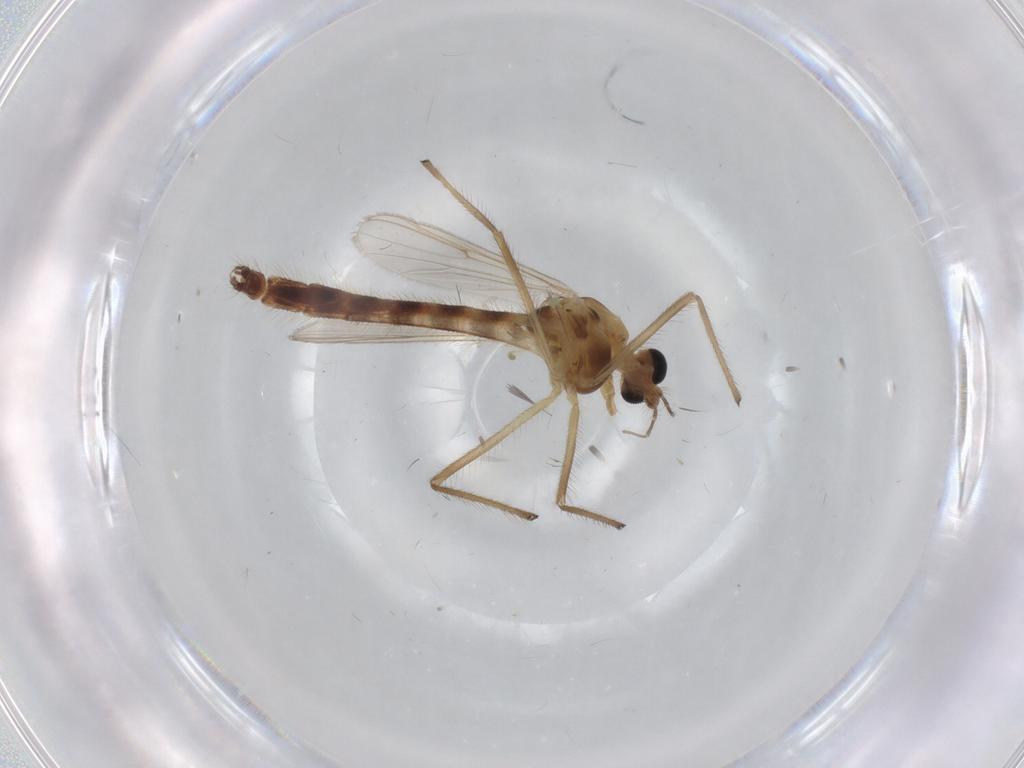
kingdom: Animalia
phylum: Arthropoda
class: Insecta
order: Diptera
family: Chironomidae
